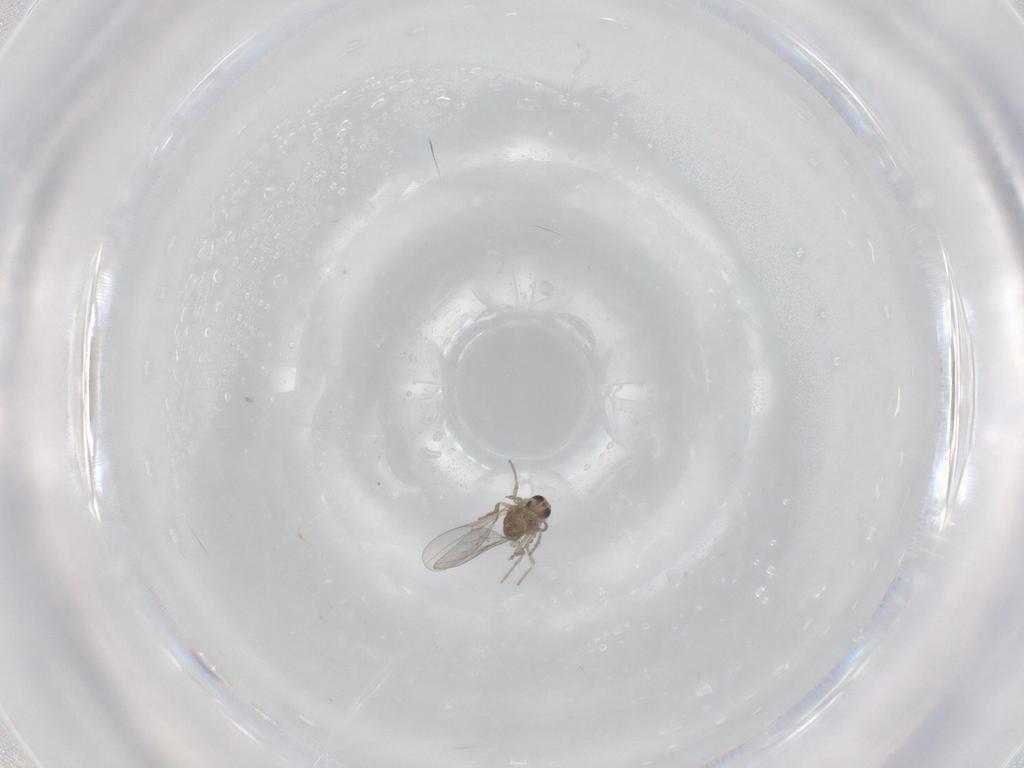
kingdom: Animalia
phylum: Arthropoda
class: Insecta
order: Diptera
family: Cecidomyiidae
